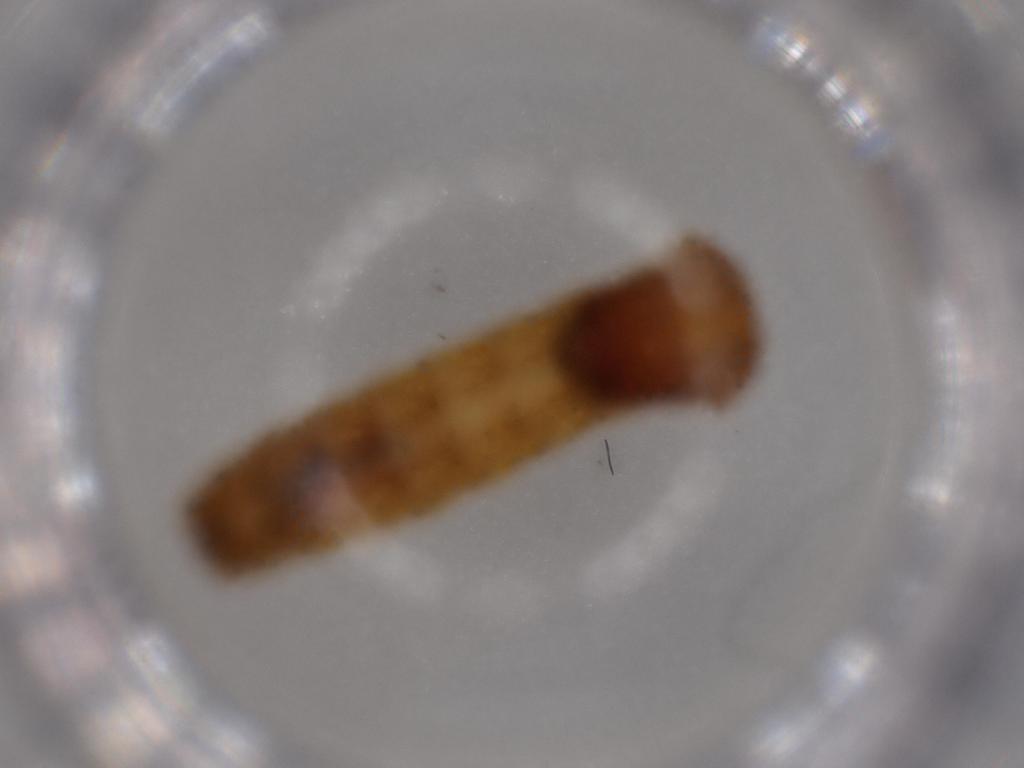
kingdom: Animalia
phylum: Arthropoda
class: Insecta
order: Coleoptera
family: Phengodidae
